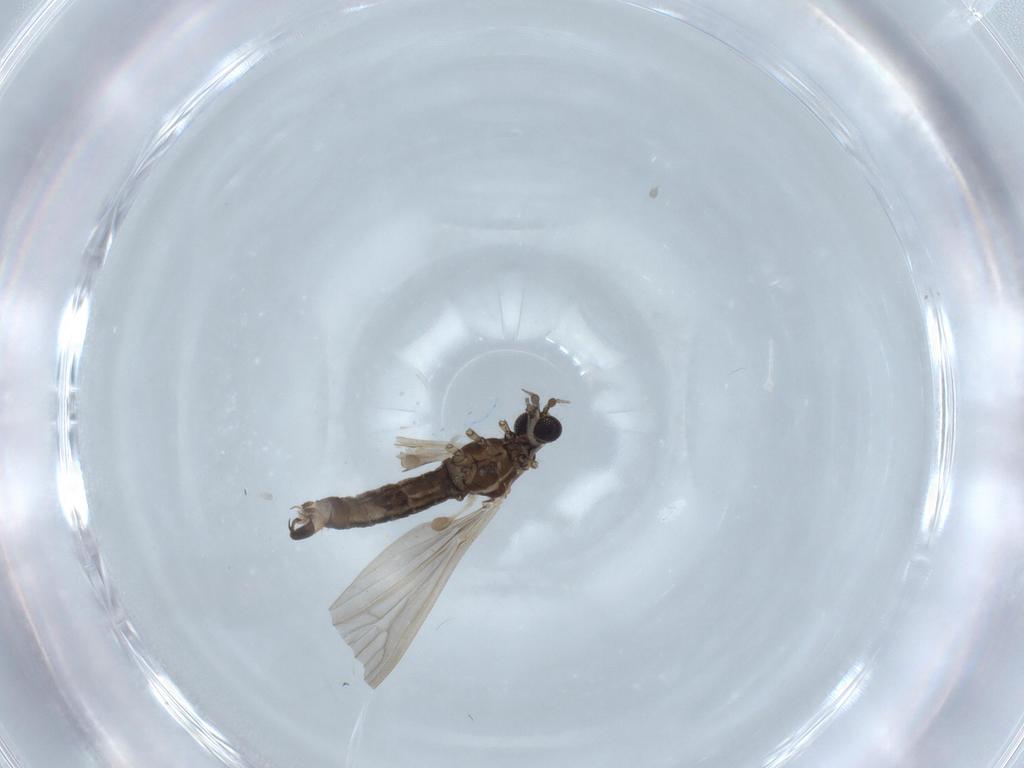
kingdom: Animalia
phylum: Arthropoda
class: Insecta
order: Diptera
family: Limoniidae
